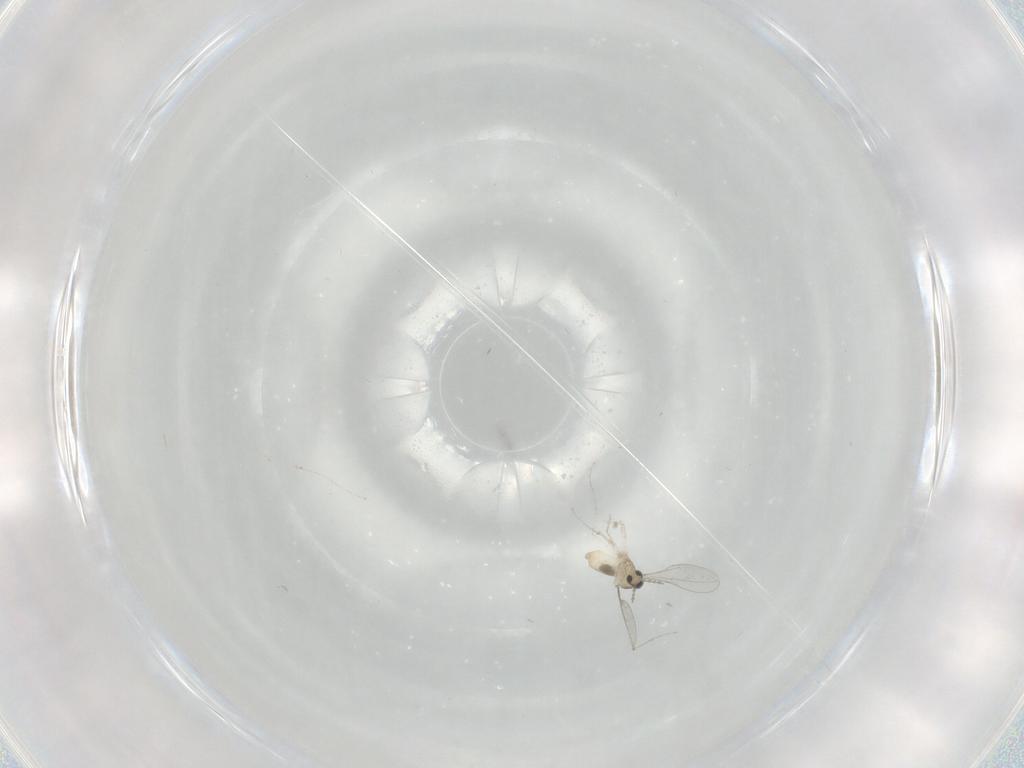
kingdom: Animalia
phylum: Arthropoda
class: Insecta
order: Diptera
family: Cecidomyiidae
